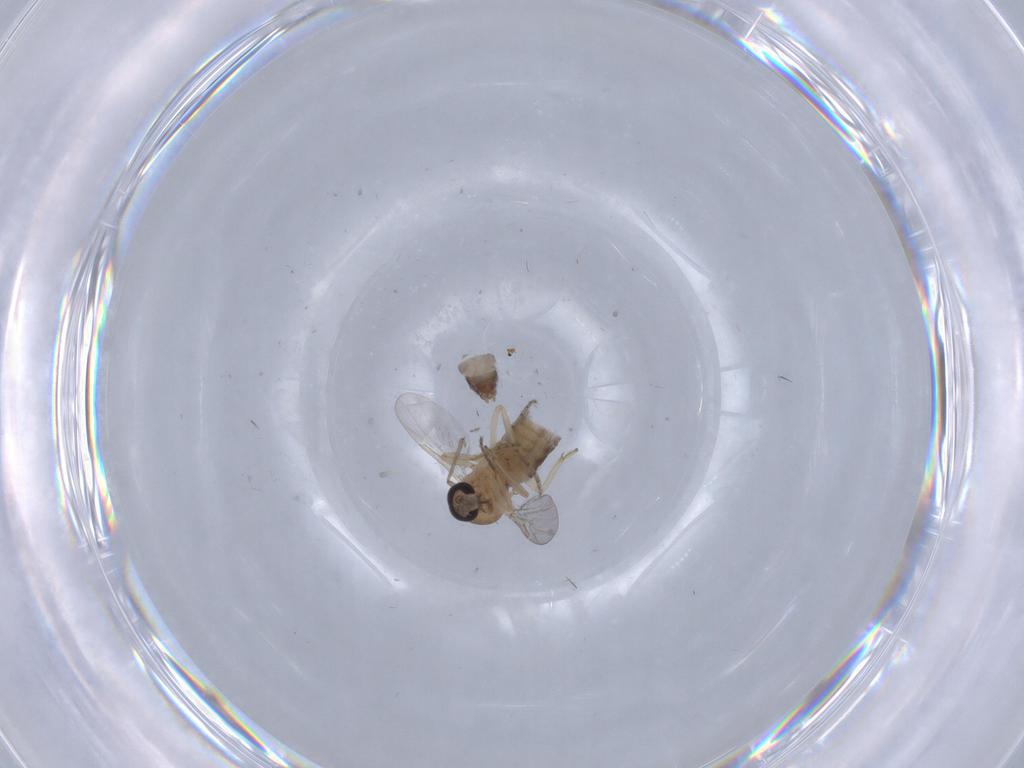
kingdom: Animalia
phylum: Arthropoda
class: Insecta
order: Diptera
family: Ceratopogonidae
